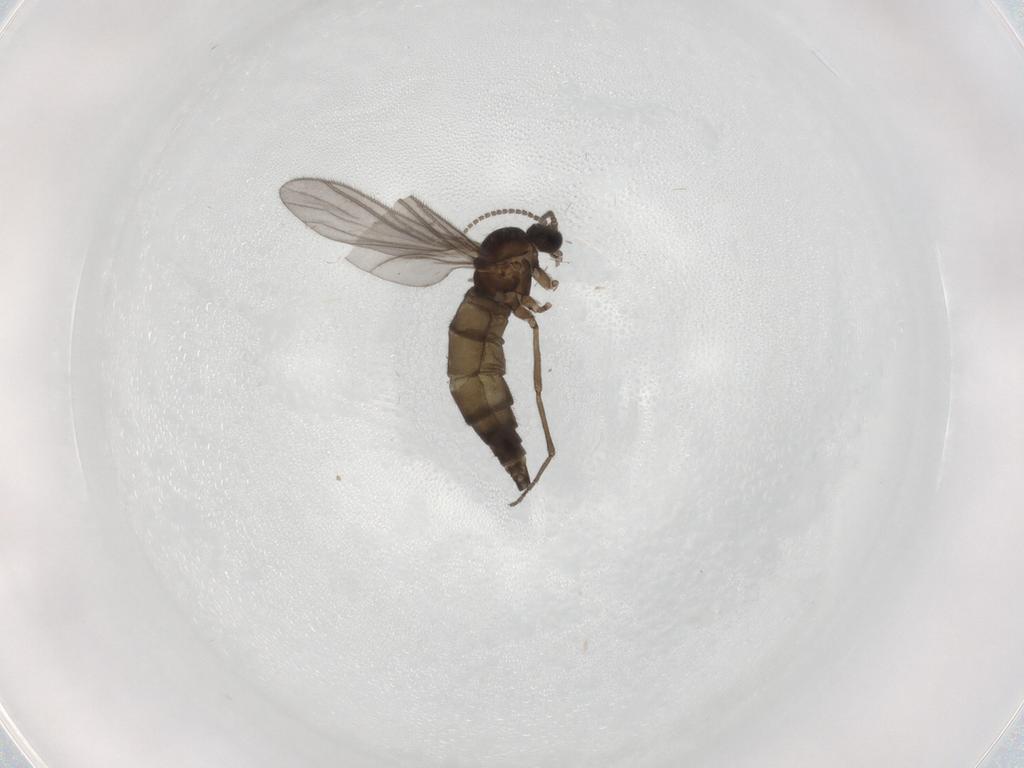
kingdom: Animalia
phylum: Arthropoda
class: Insecta
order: Diptera
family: Sciaridae
